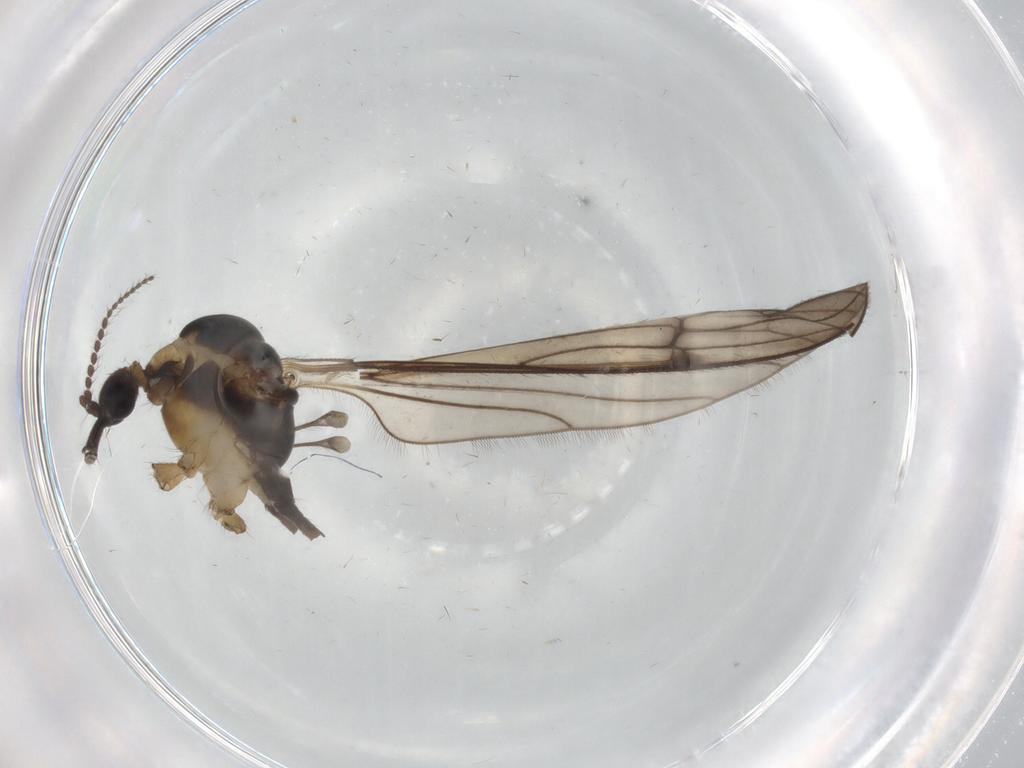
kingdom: Animalia
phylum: Arthropoda
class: Insecta
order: Diptera
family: Limoniidae
